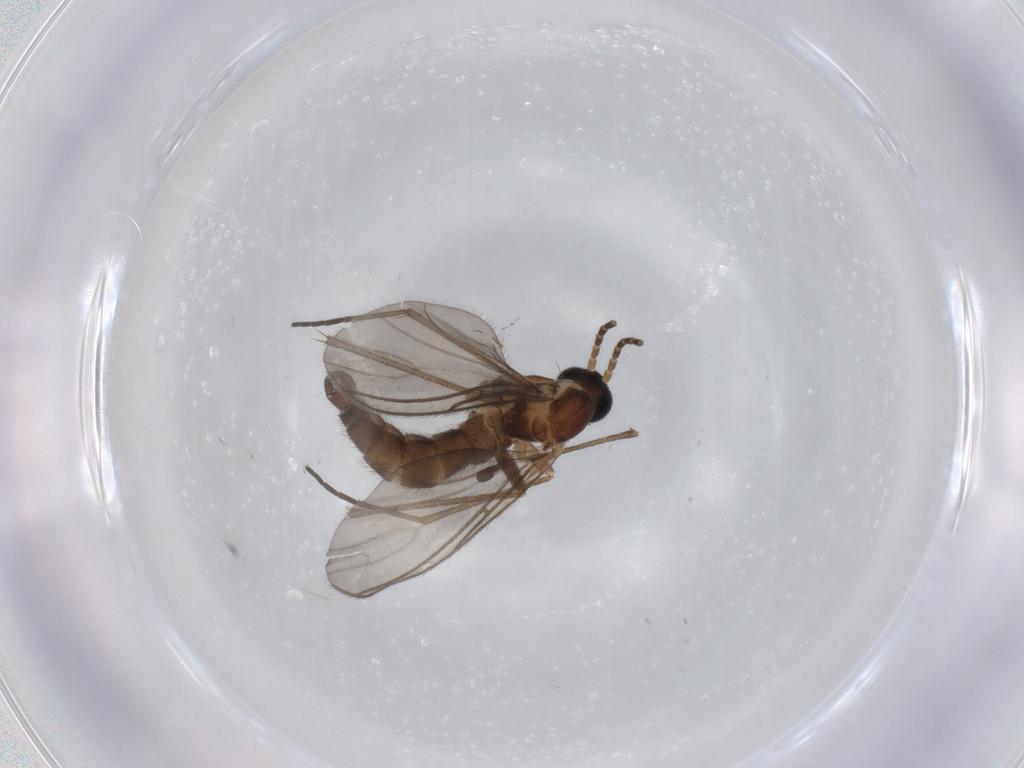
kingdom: Animalia
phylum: Arthropoda
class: Insecta
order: Diptera
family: Sciaridae
